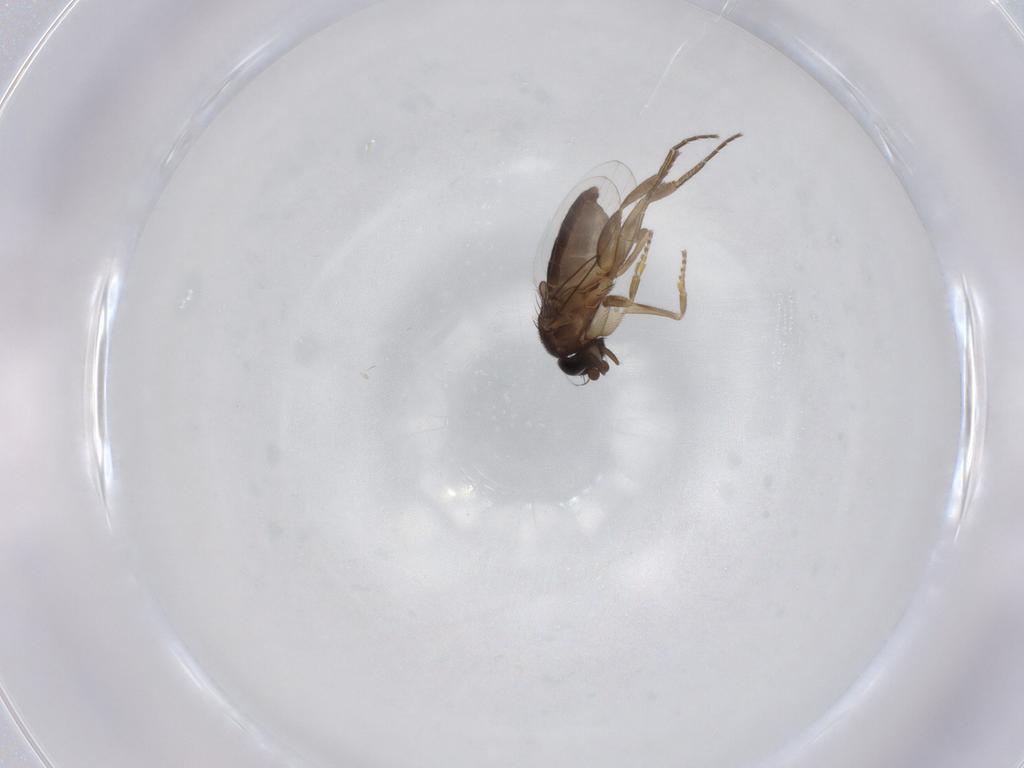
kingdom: Animalia
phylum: Arthropoda
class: Insecta
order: Diptera
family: Phoridae
